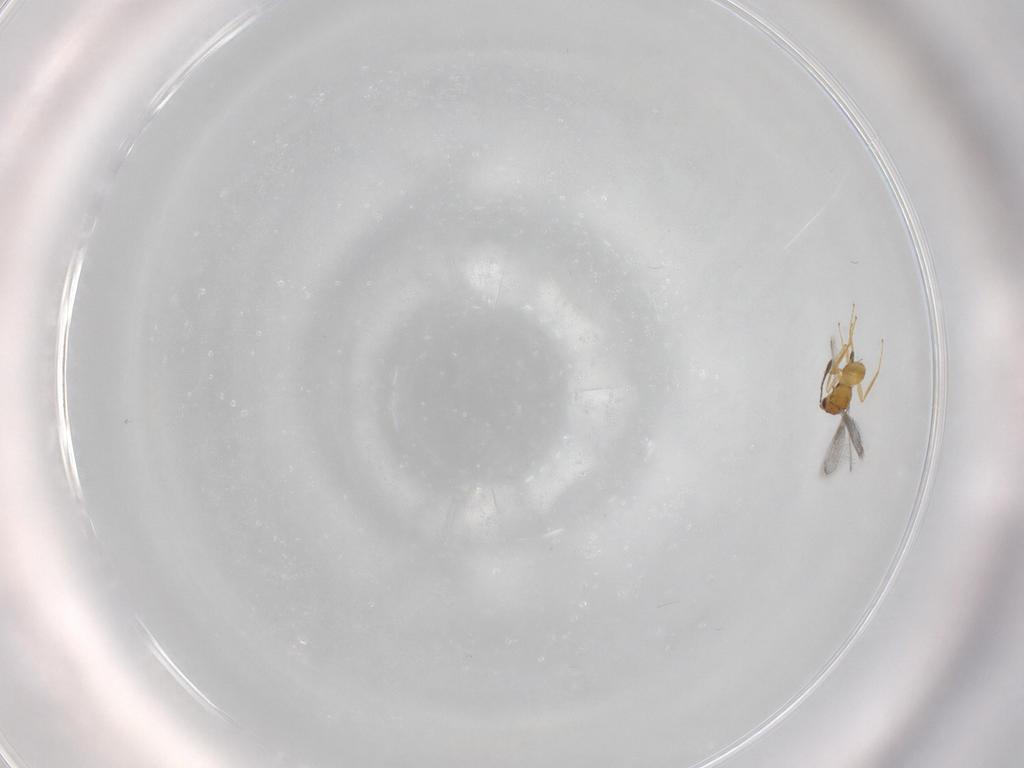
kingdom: Animalia
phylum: Arthropoda
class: Insecta
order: Hymenoptera
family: Mymaridae
